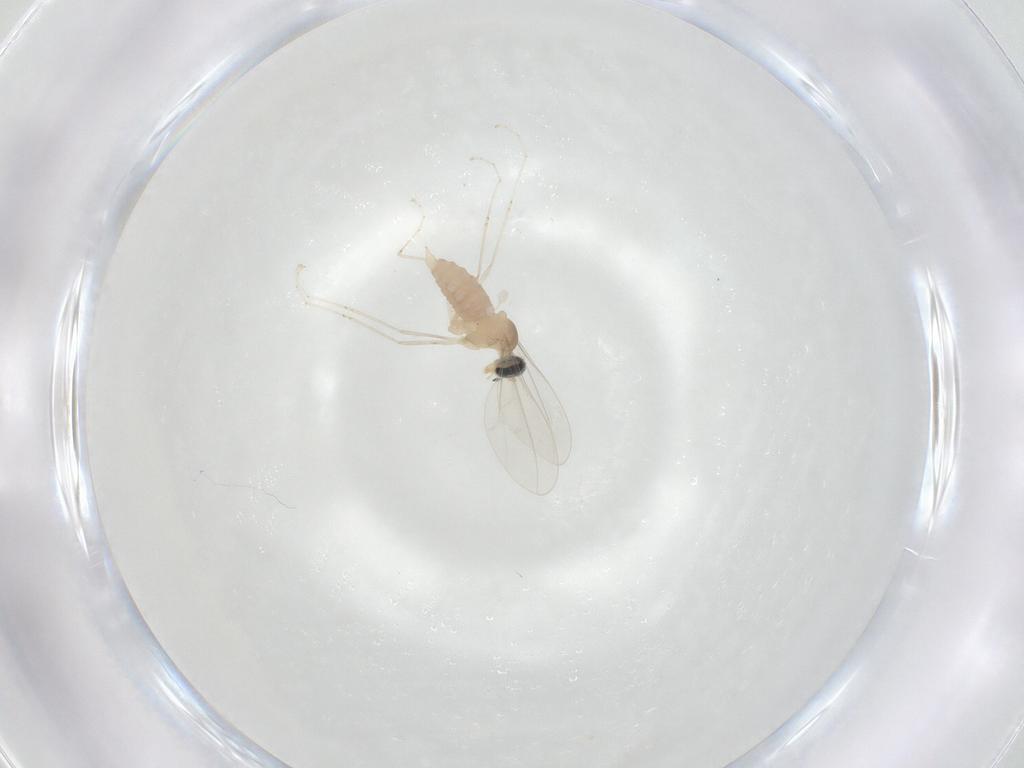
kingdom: Animalia
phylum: Arthropoda
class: Insecta
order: Diptera
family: Cecidomyiidae
